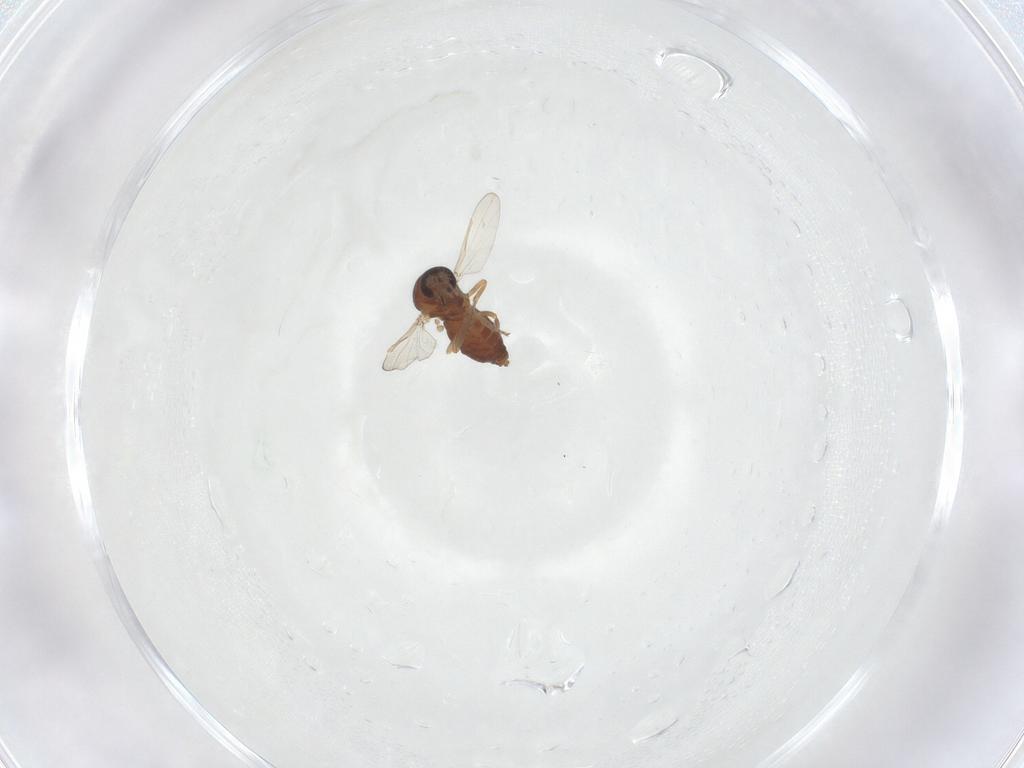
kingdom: Animalia
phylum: Arthropoda
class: Insecta
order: Diptera
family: Ceratopogonidae
